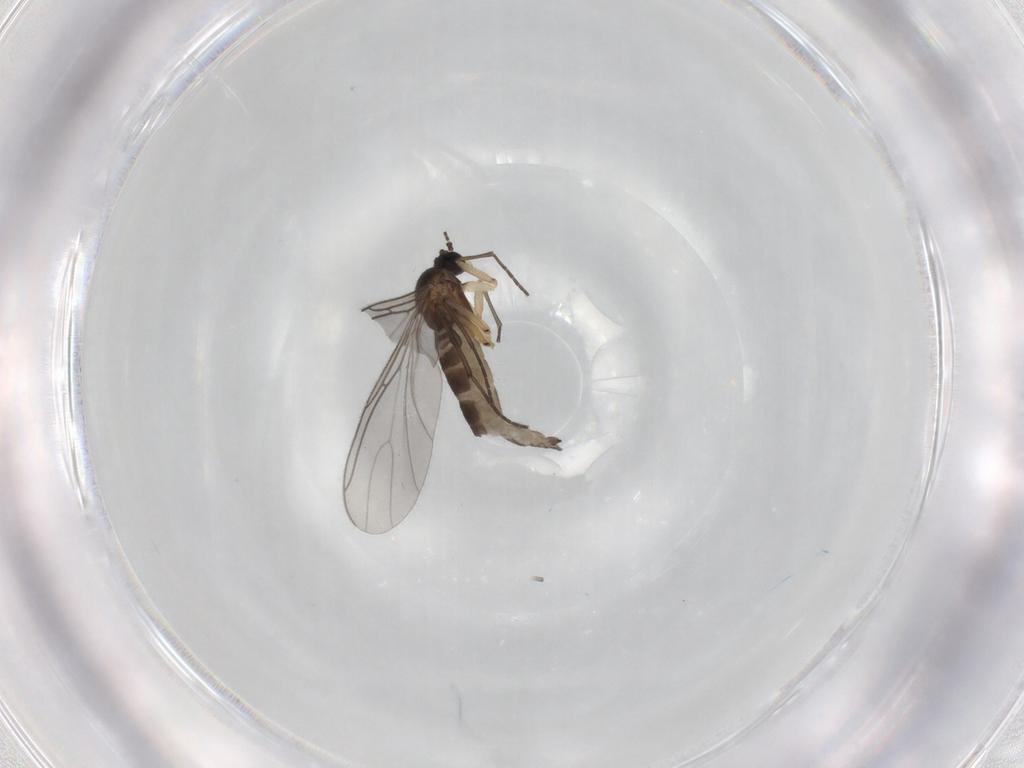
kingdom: Animalia
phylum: Arthropoda
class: Insecta
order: Diptera
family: Sciaridae
